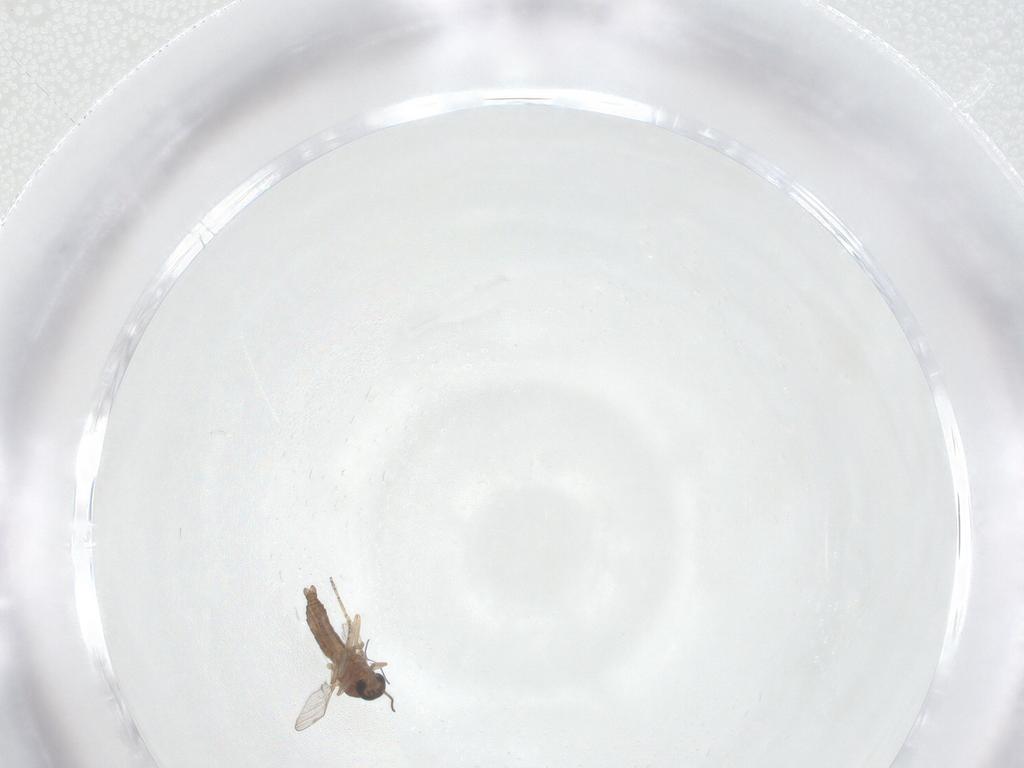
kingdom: Animalia
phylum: Arthropoda
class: Insecta
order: Diptera
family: Ceratopogonidae
